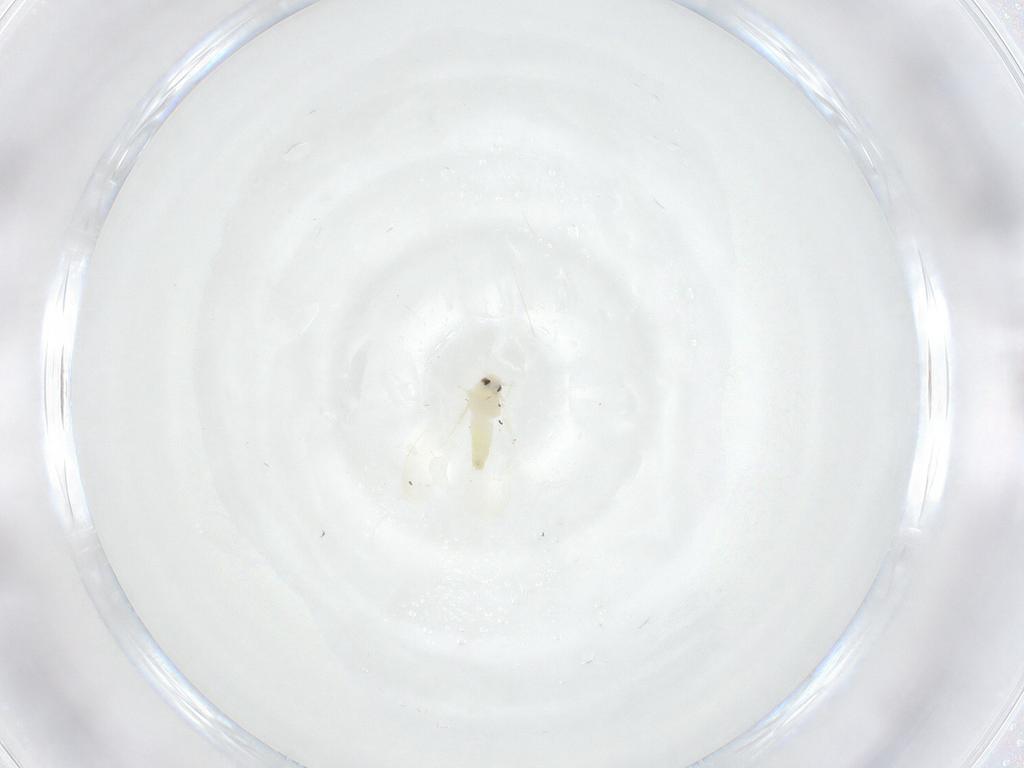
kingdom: Animalia
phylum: Arthropoda
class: Insecta
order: Hemiptera
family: Aleyrodidae
